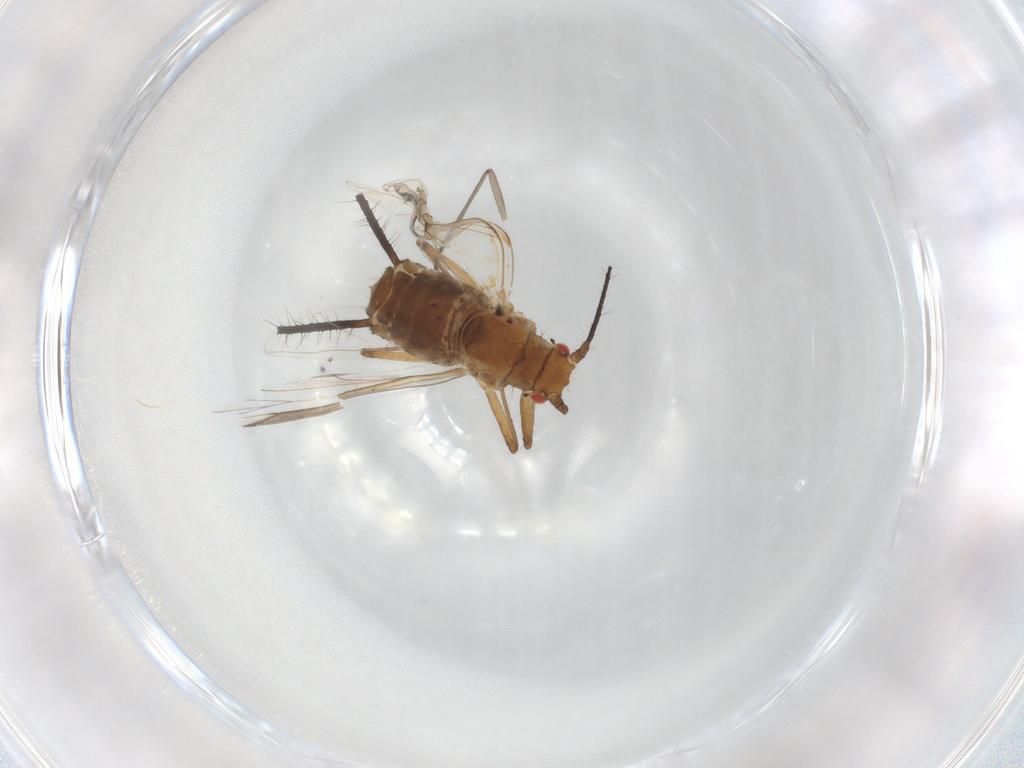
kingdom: Animalia
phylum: Arthropoda
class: Insecta
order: Hemiptera
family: Aphididae
